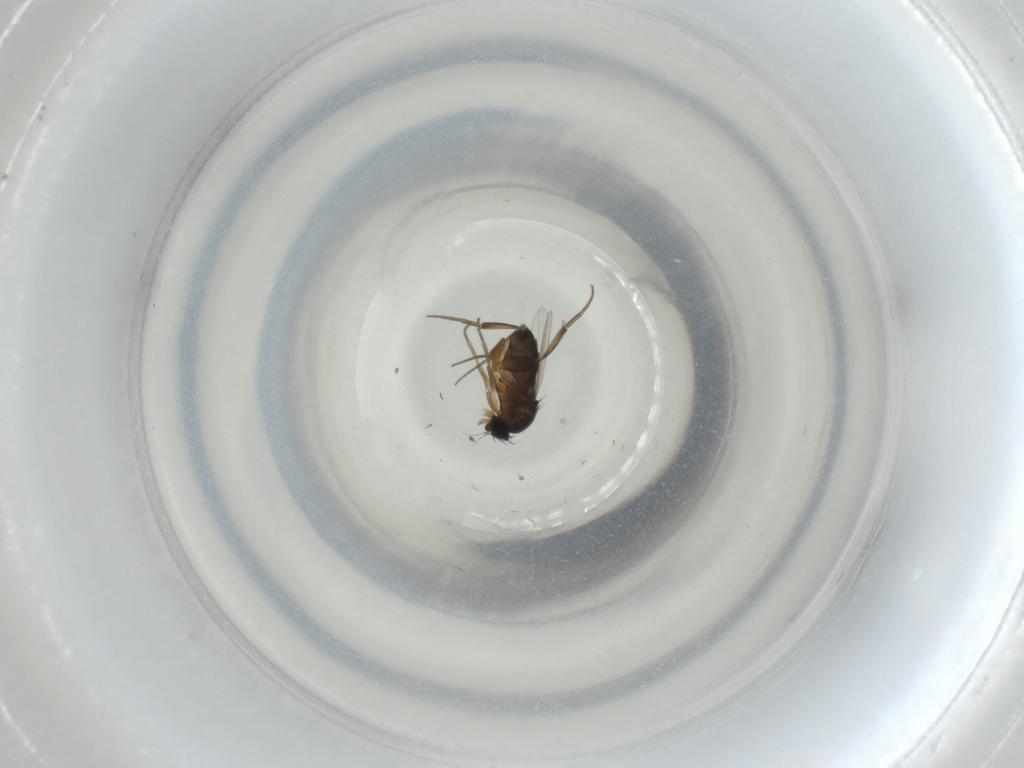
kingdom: Animalia
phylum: Arthropoda
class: Insecta
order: Diptera
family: Phoridae
